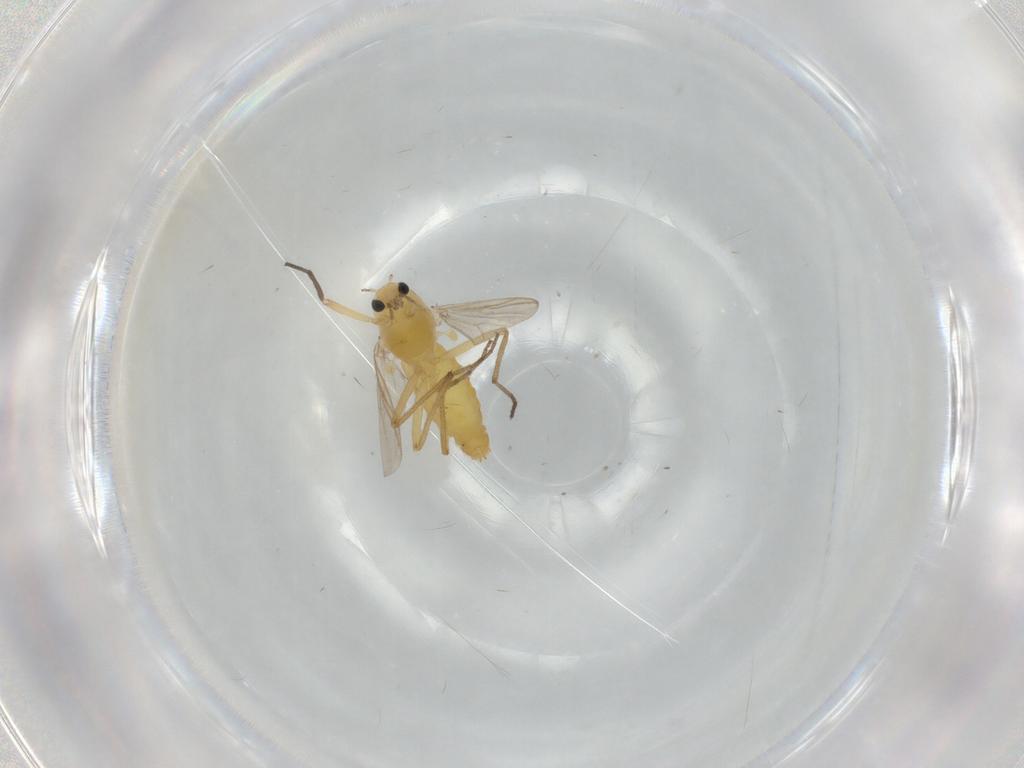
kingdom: Animalia
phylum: Arthropoda
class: Insecta
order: Diptera
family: Chironomidae
